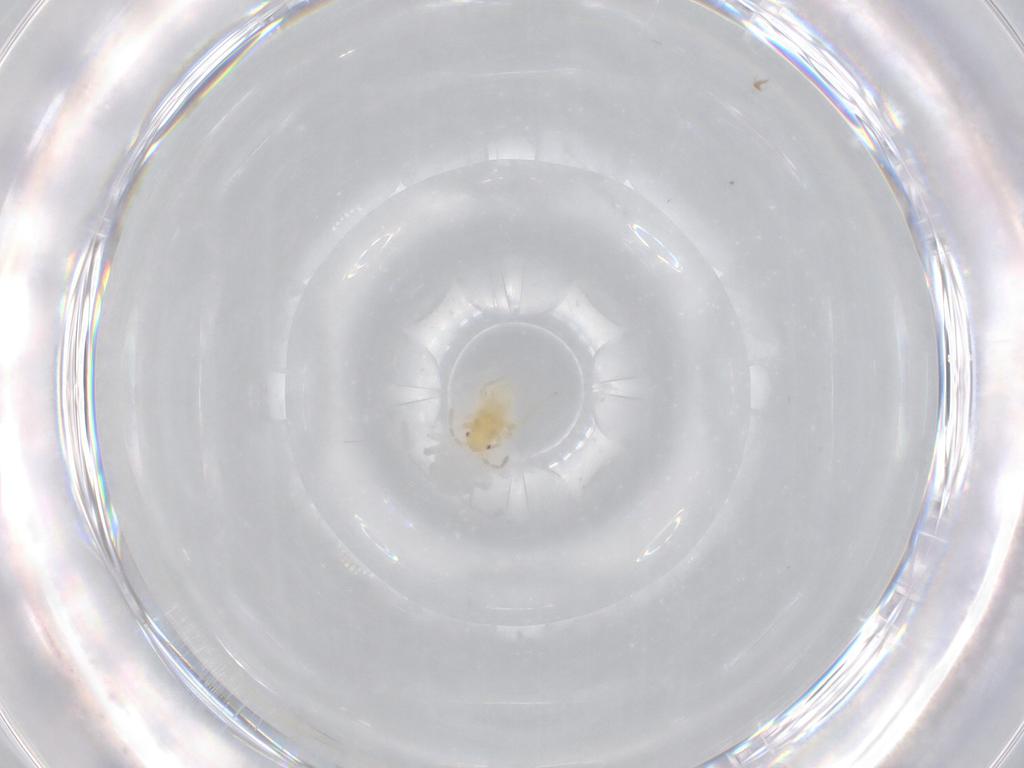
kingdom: Animalia
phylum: Arthropoda
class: Insecta
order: Hemiptera
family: Miridae
